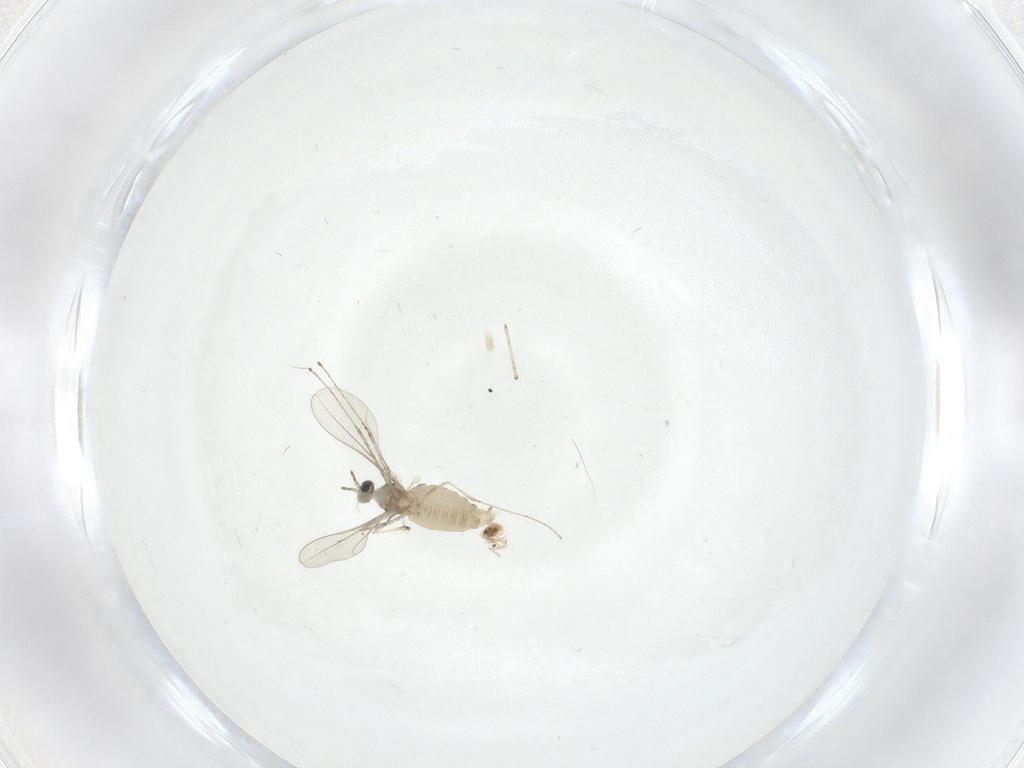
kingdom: Animalia
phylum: Arthropoda
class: Insecta
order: Diptera
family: Cecidomyiidae
